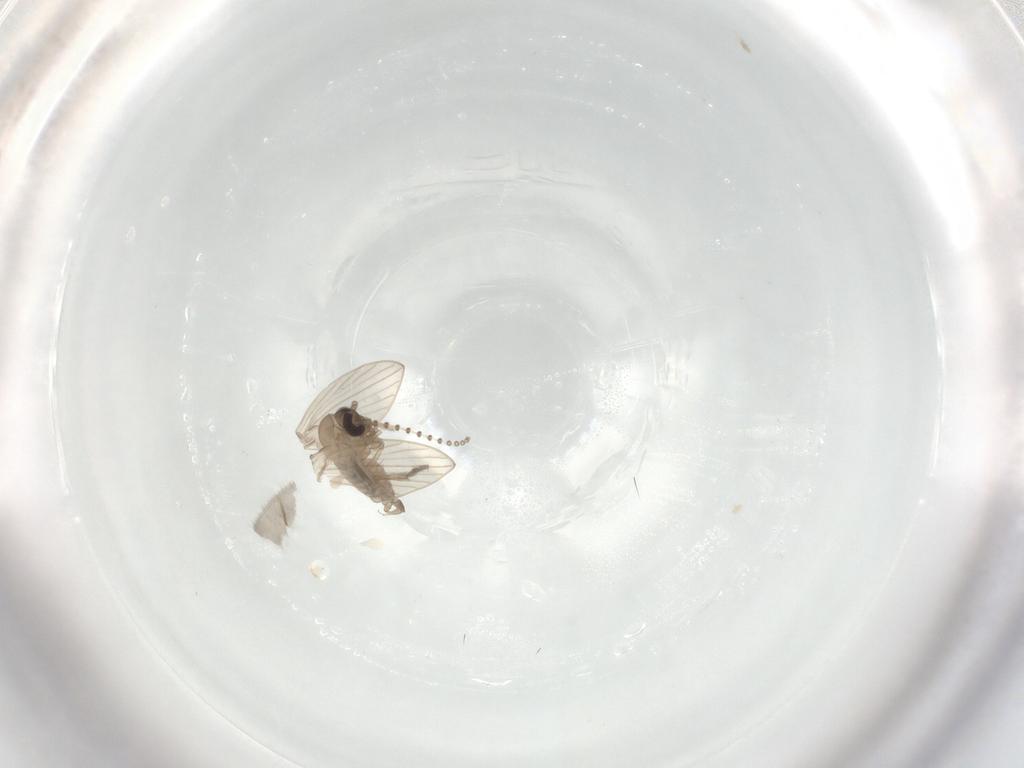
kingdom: Animalia
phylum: Arthropoda
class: Insecta
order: Diptera
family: Psychodidae
